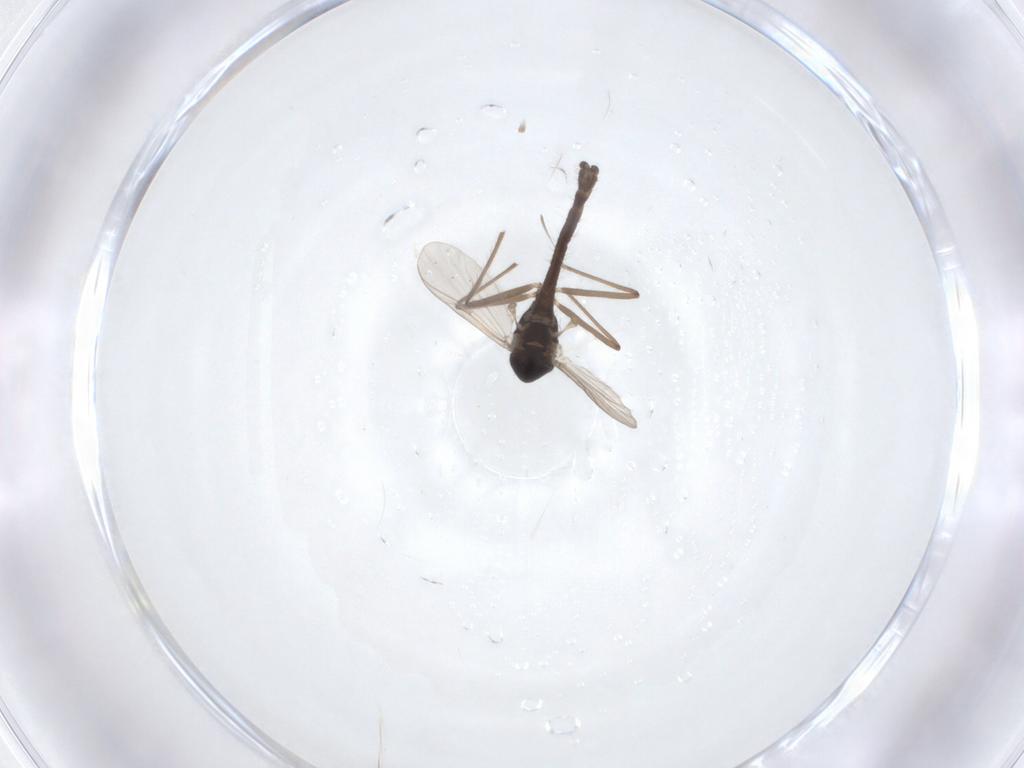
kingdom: Animalia
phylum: Arthropoda
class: Insecta
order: Diptera
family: Chironomidae
